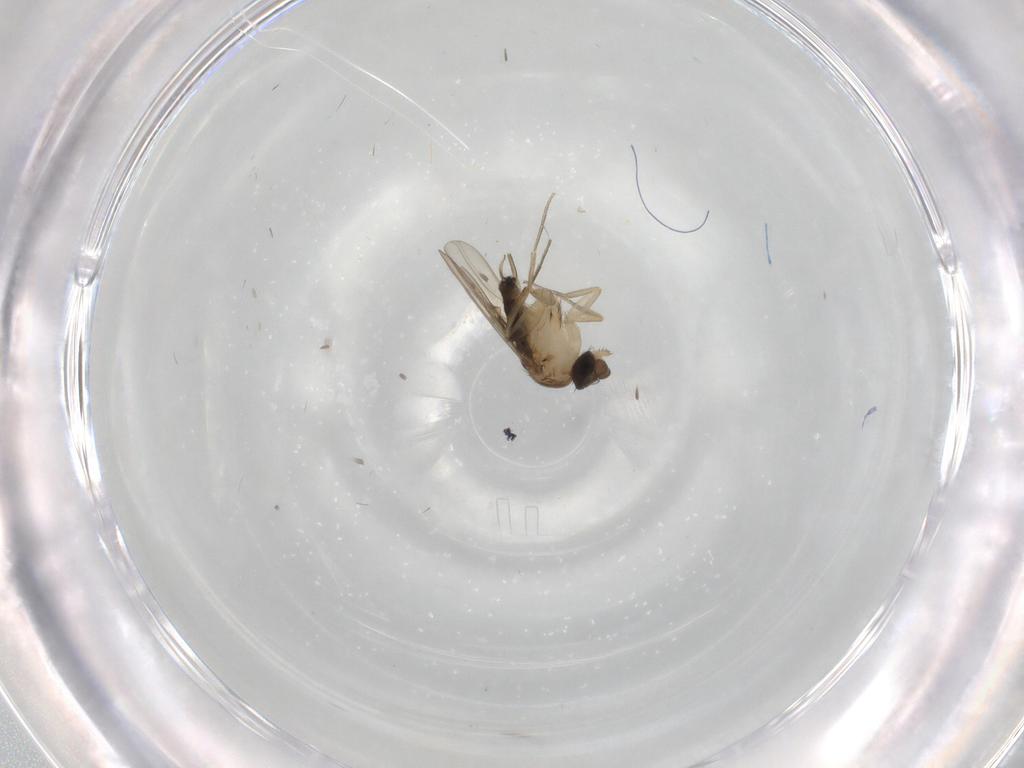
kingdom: Animalia
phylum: Arthropoda
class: Insecta
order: Diptera
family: Phoridae
